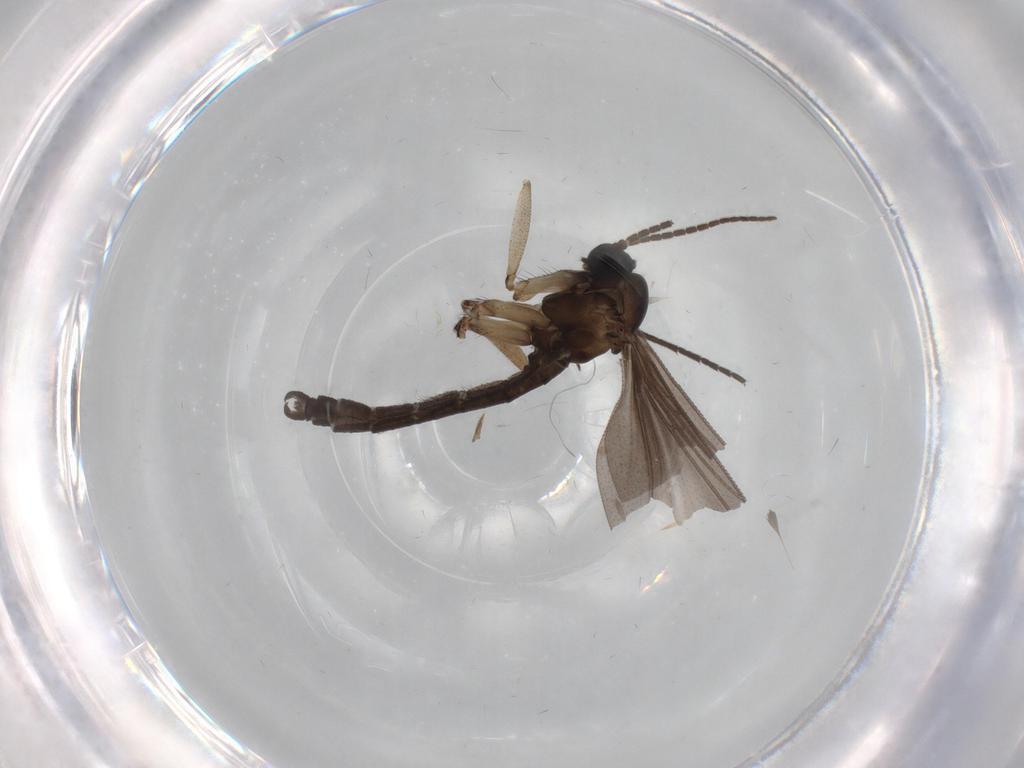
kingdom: Animalia
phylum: Arthropoda
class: Insecta
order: Diptera
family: Sciaridae
